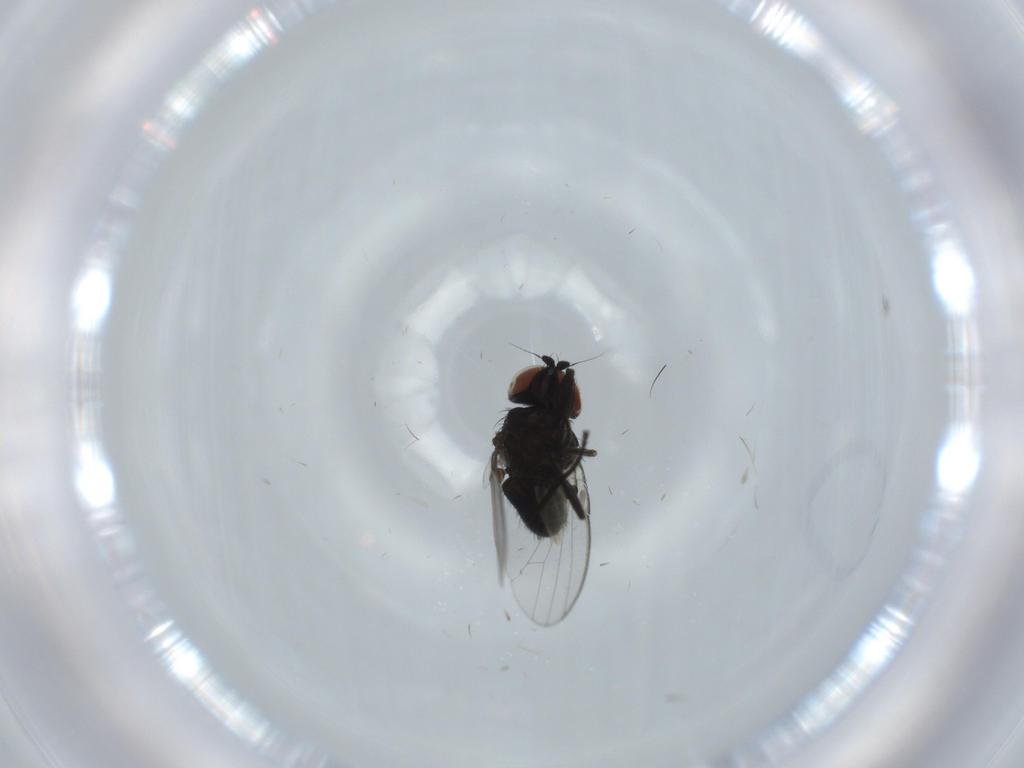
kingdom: Animalia
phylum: Arthropoda
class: Insecta
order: Diptera
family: Milichiidae
